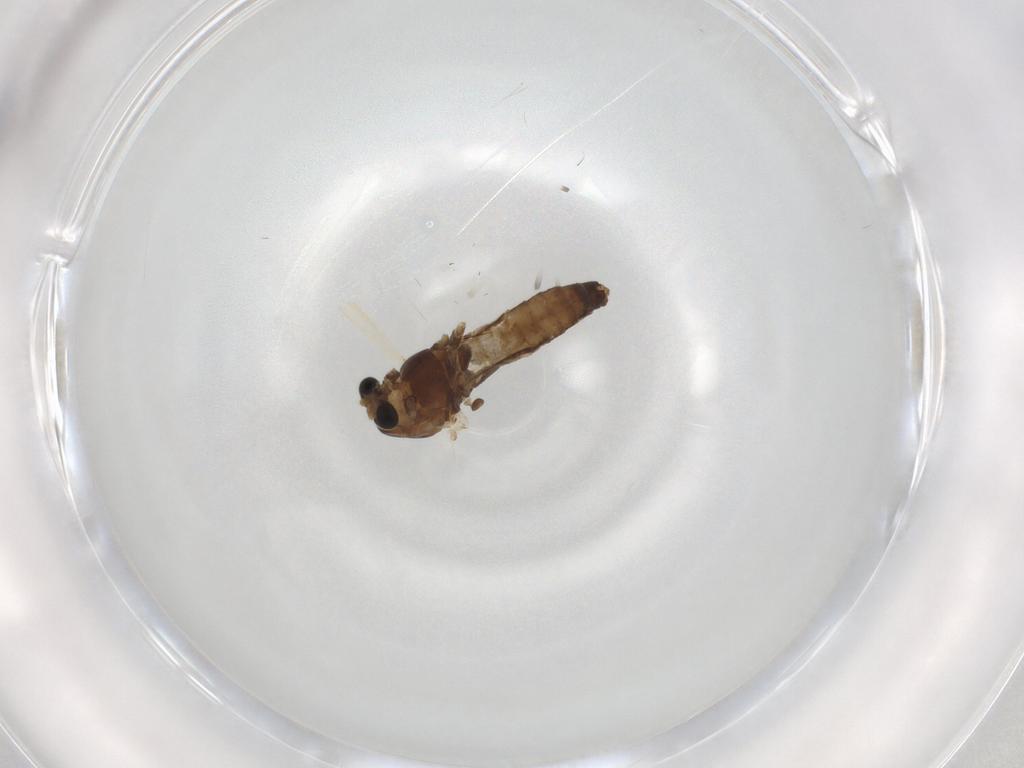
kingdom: Animalia
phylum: Arthropoda
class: Insecta
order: Diptera
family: Chironomidae
